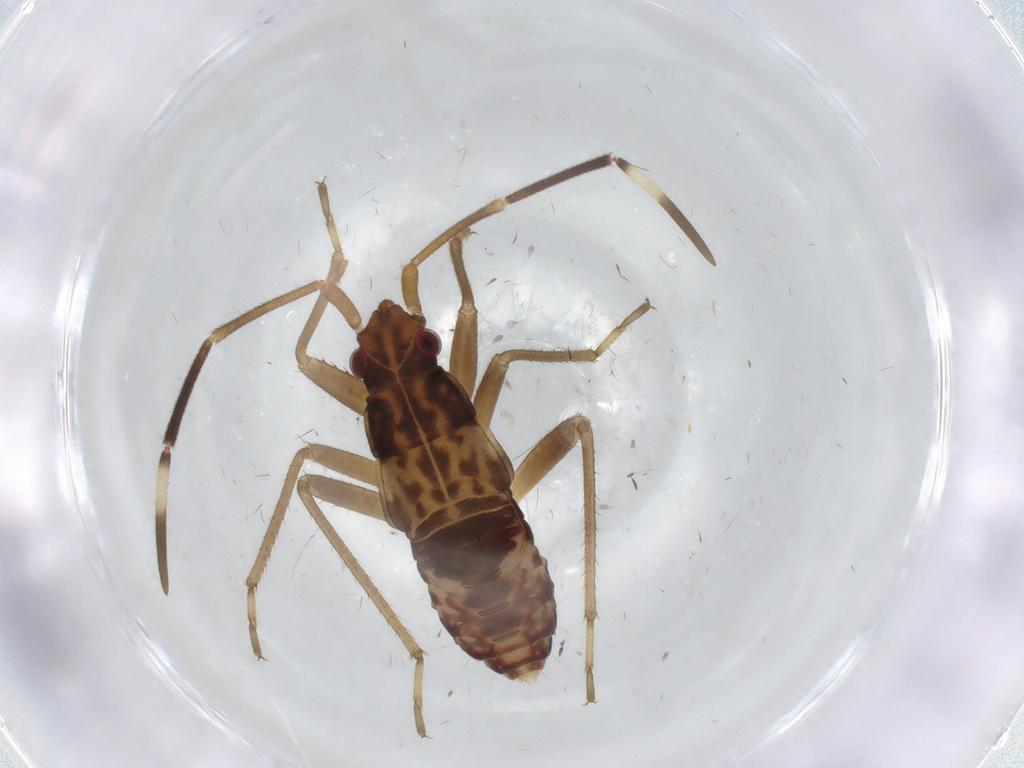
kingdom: Animalia
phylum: Arthropoda
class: Insecta
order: Hemiptera
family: Rhyparochromidae
